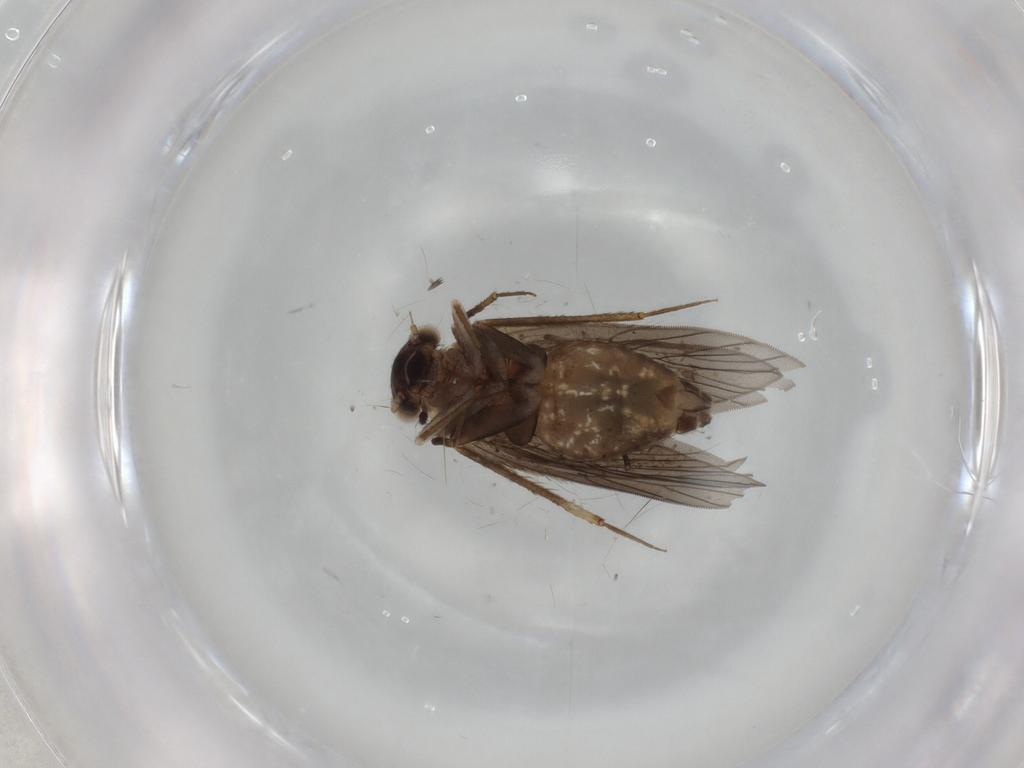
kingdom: Animalia
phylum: Arthropoda
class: Insecta
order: Psocodea
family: Lepidopsocidae
